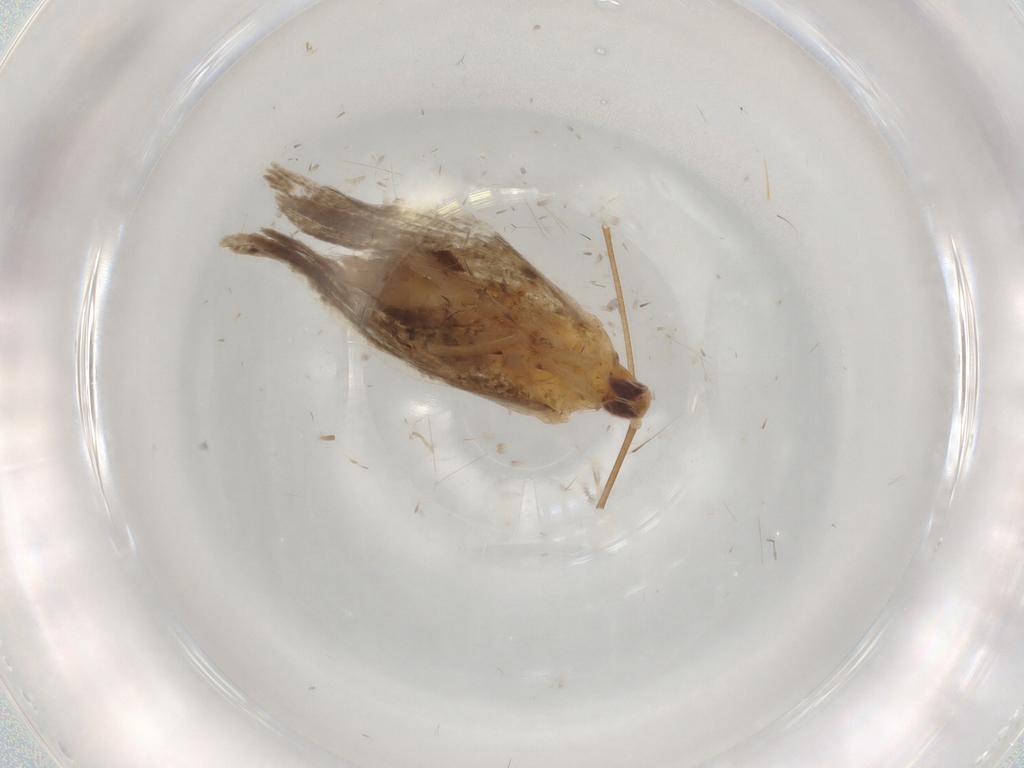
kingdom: Animalia
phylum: Arthropoda
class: Insecta
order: Lepidoptera
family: Ypsolophidae
